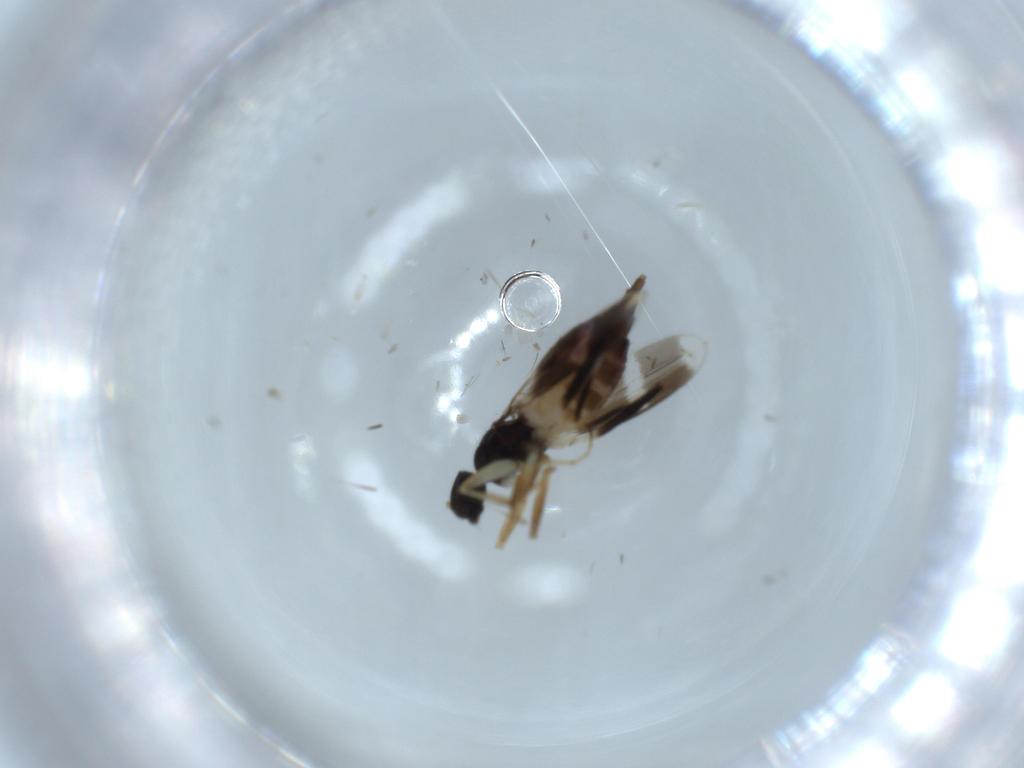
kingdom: Animalia
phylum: Arthropoda
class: Insecta
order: Diptera
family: Hybotidae
